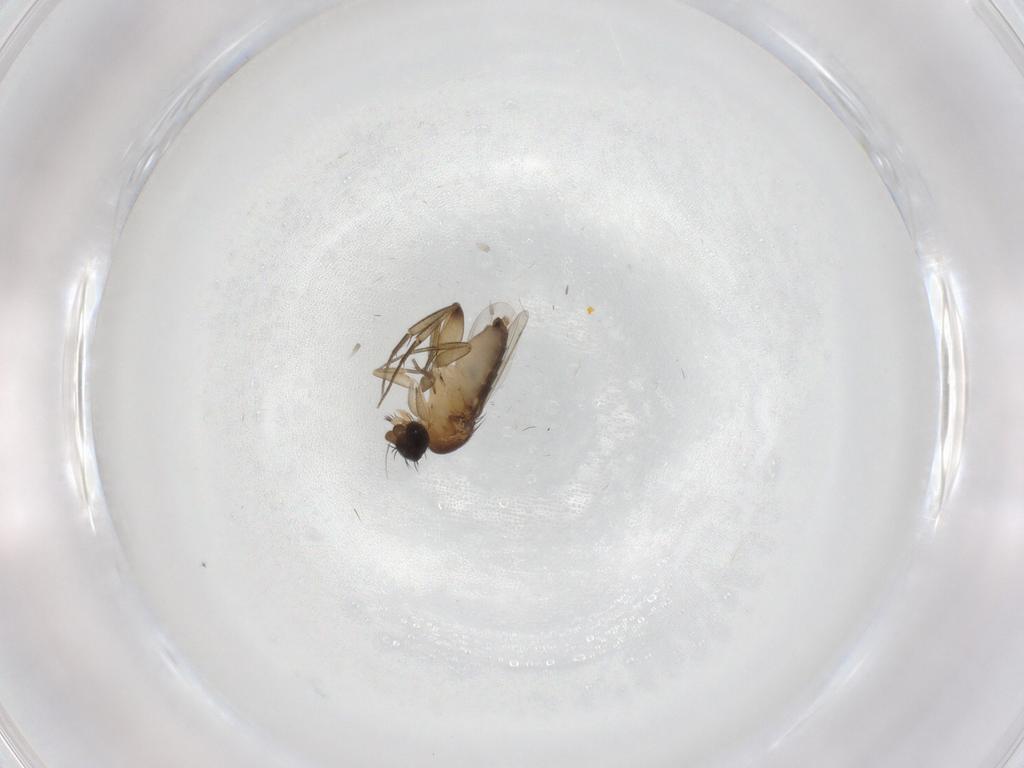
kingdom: Animalia
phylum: Arthropoda
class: Insecta
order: Diptera
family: Phoridae
